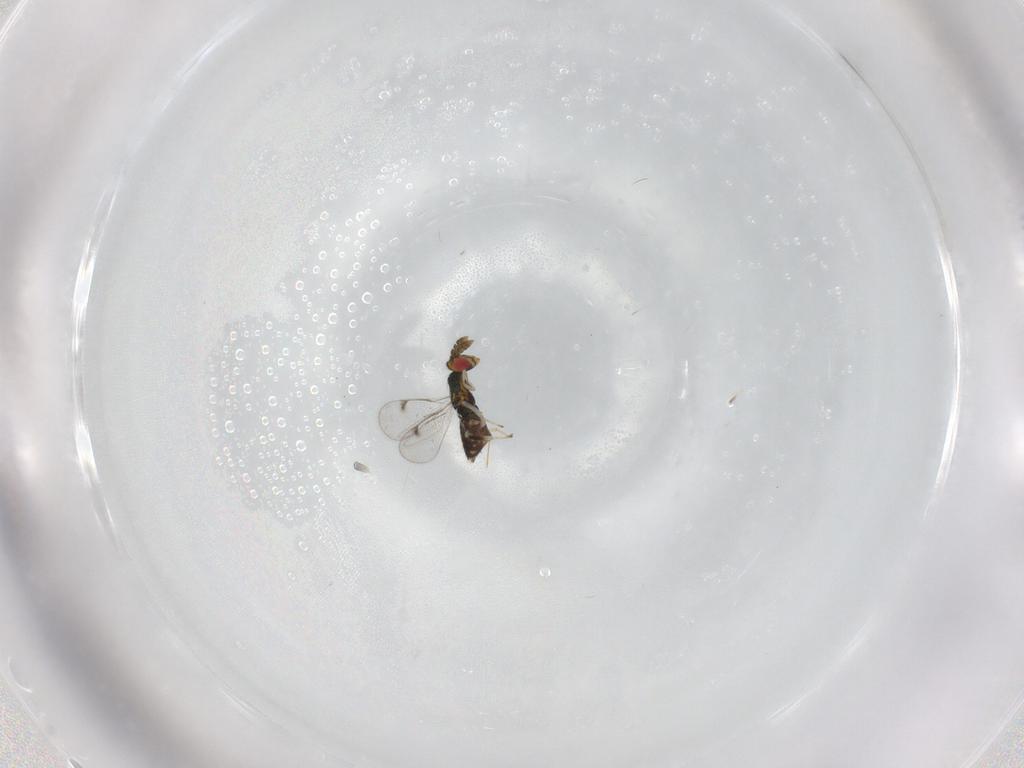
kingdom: Animalia
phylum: Arthropoda
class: Insecta
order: Hymenoptera
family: Eulophidae
